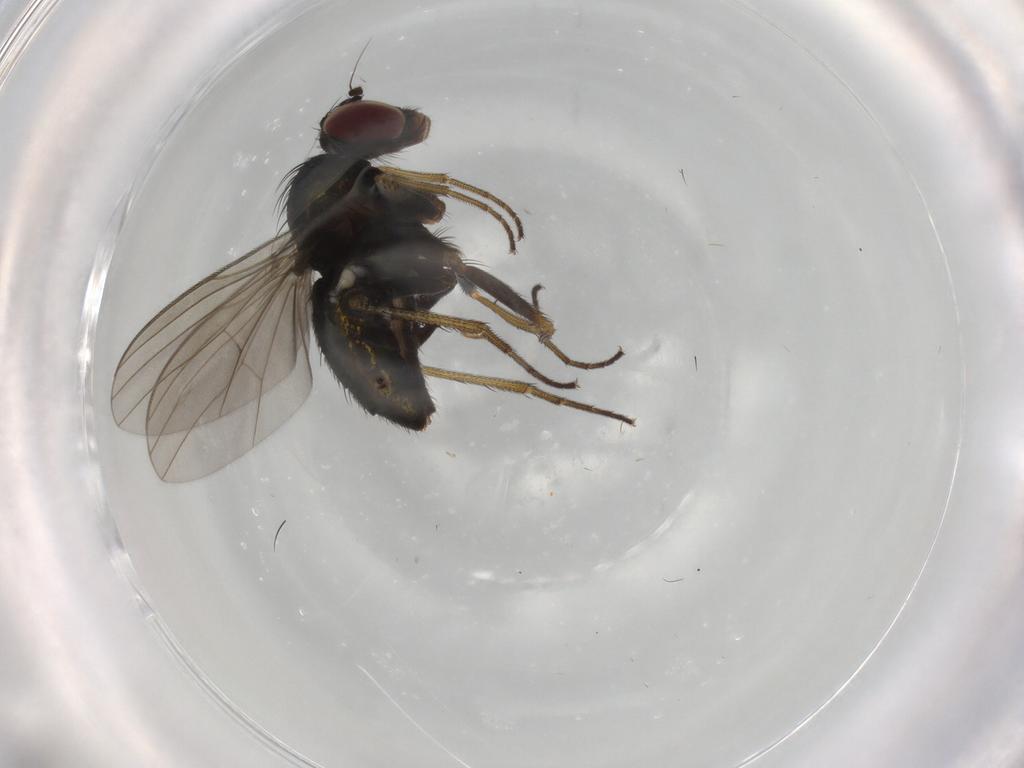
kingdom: Animalia
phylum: Arthropoda
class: Insecta
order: Diptera
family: Dolichopodidae
